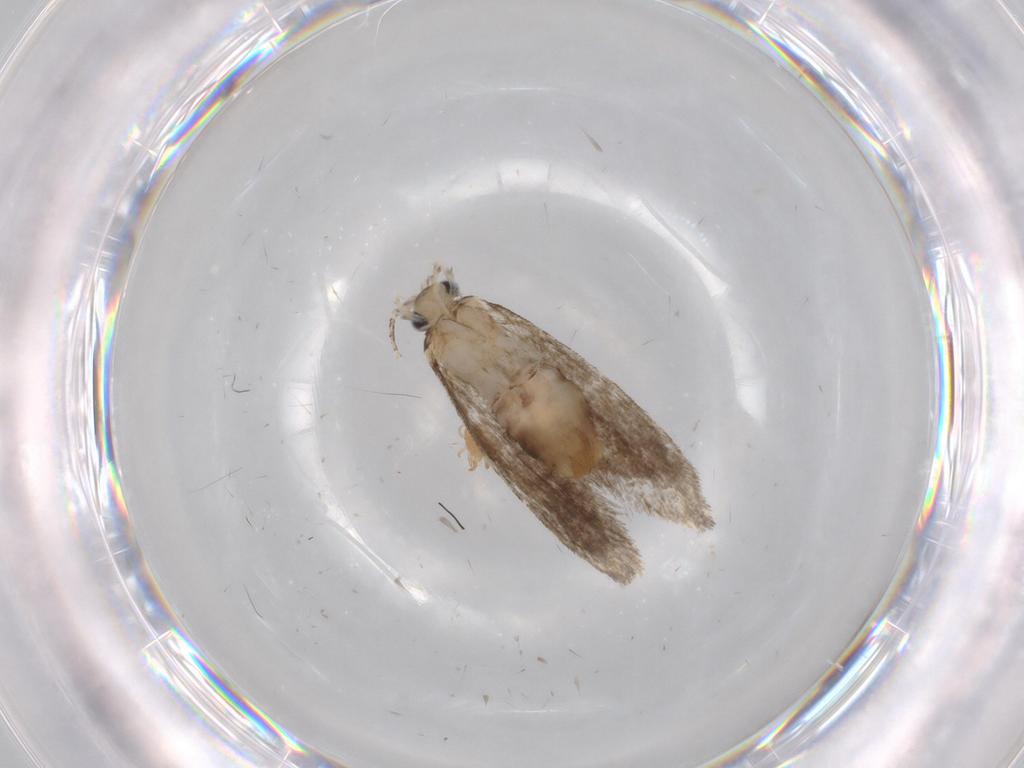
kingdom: Animalia
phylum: Arthropoda
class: Insecta
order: Lepidoptera
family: Tineidae
